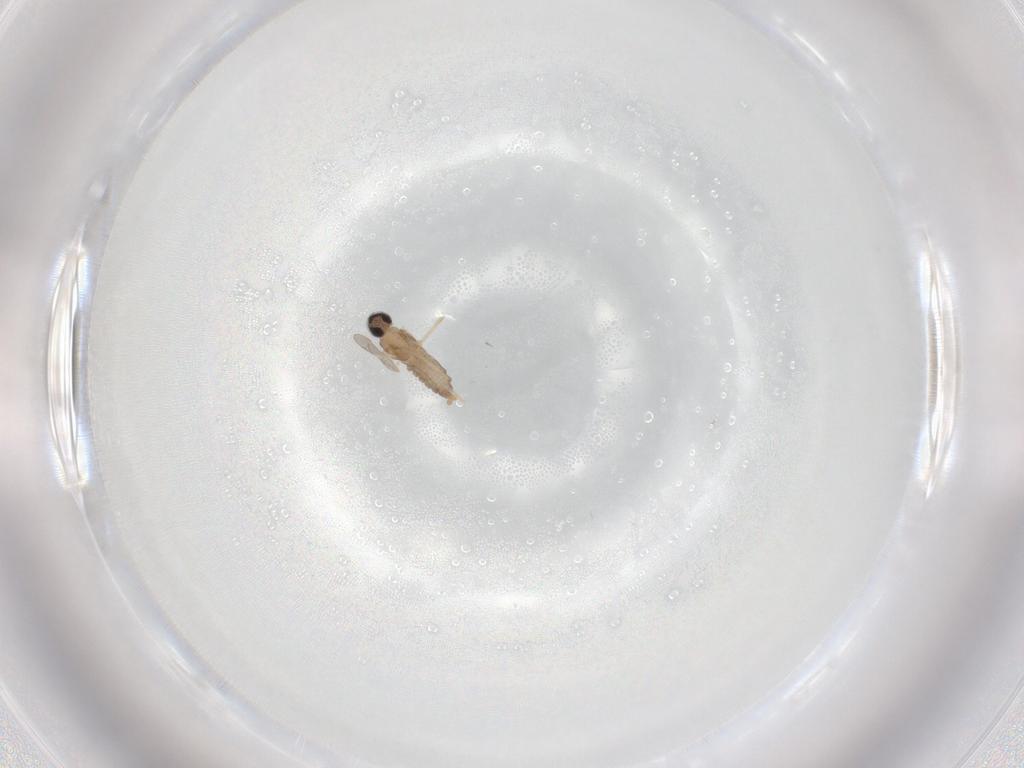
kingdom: Animalia
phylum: Arthropoda
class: Insecta
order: Diptera
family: Cecidomyiidae
